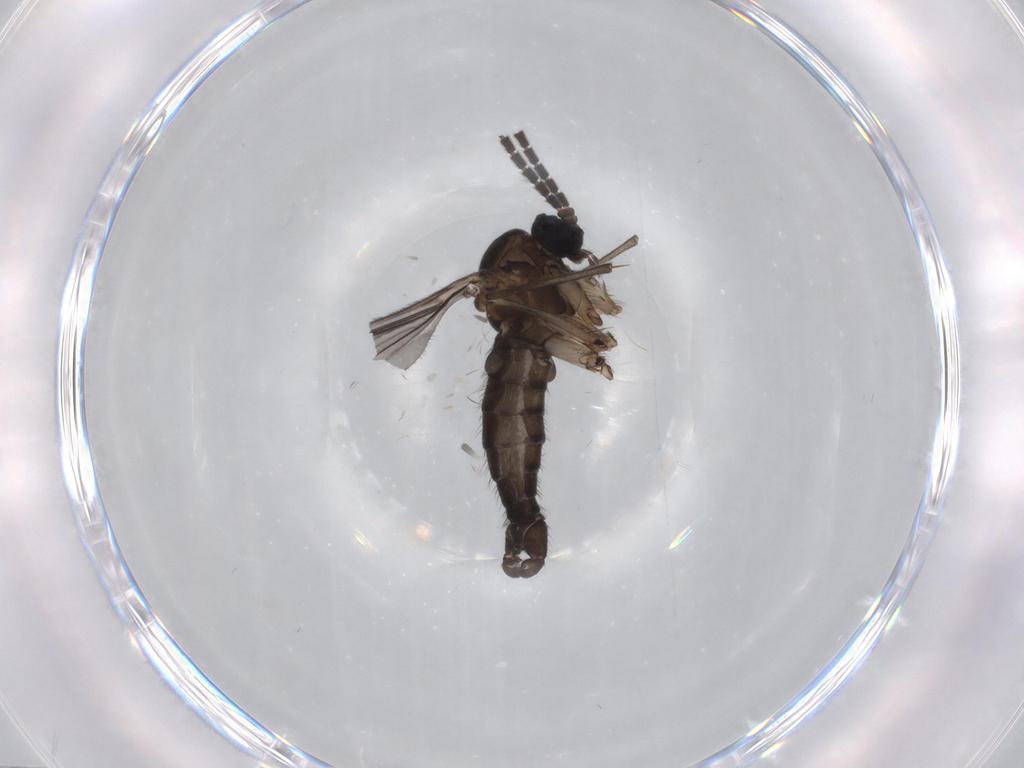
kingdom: Animalia
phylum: Arthropoda
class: Insecta
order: Diptera
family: Sciaridae
